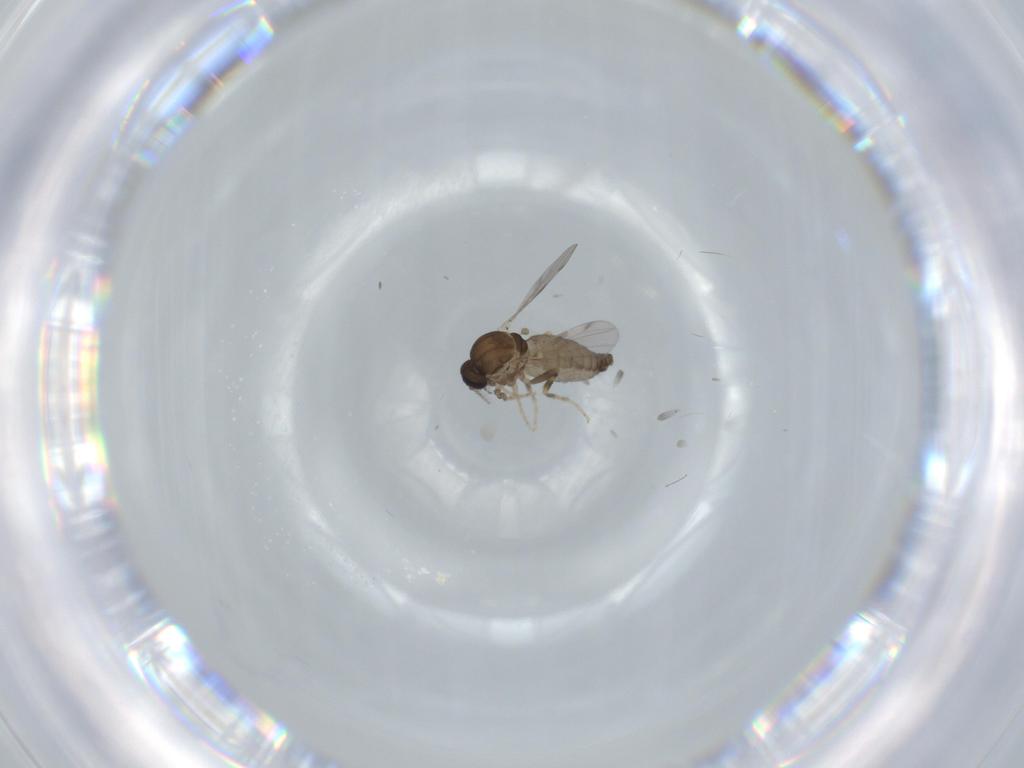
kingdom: Animalia
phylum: Arthropoda
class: Insecta
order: Diptera
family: Ceratopogonidae
